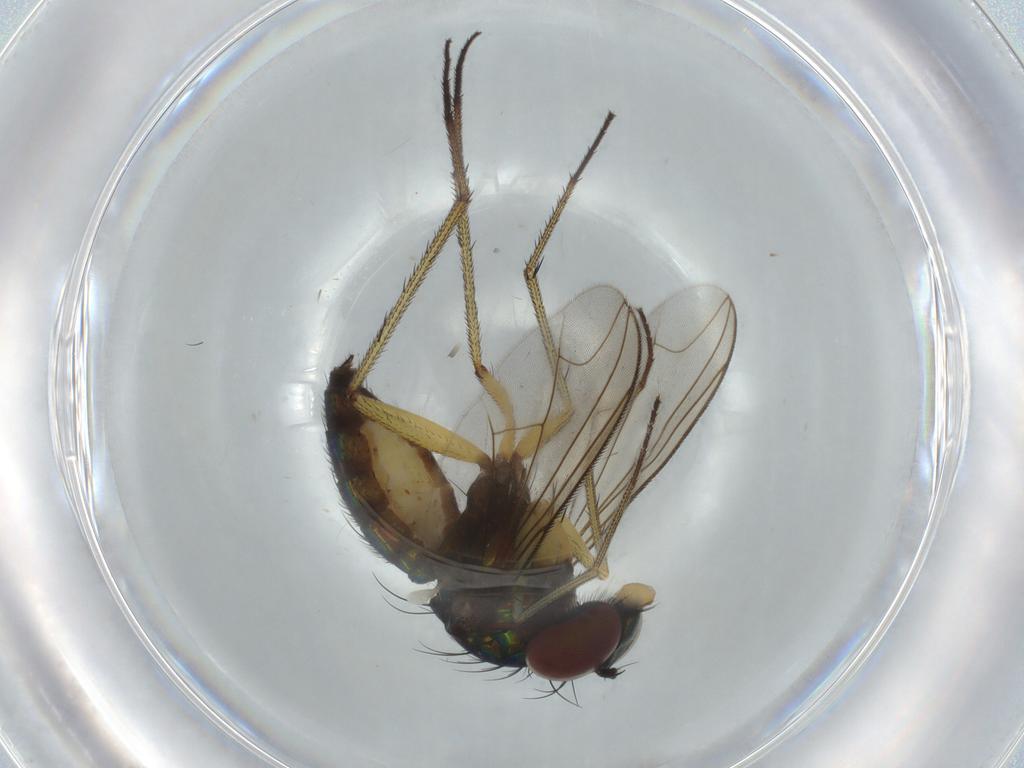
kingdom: Animalia
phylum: Arthropoda
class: Insecta
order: Diptera
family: Dolichopodidae
